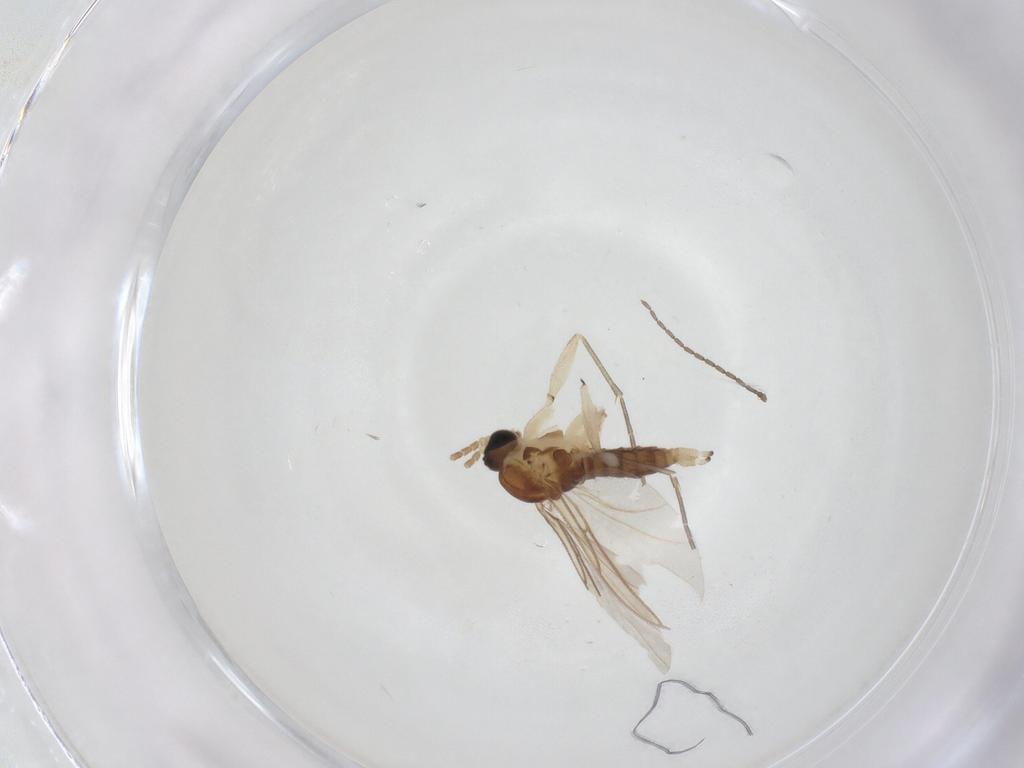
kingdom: Animalia
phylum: Arthropoda
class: Insecta
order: Diptera
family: Sciaridae
